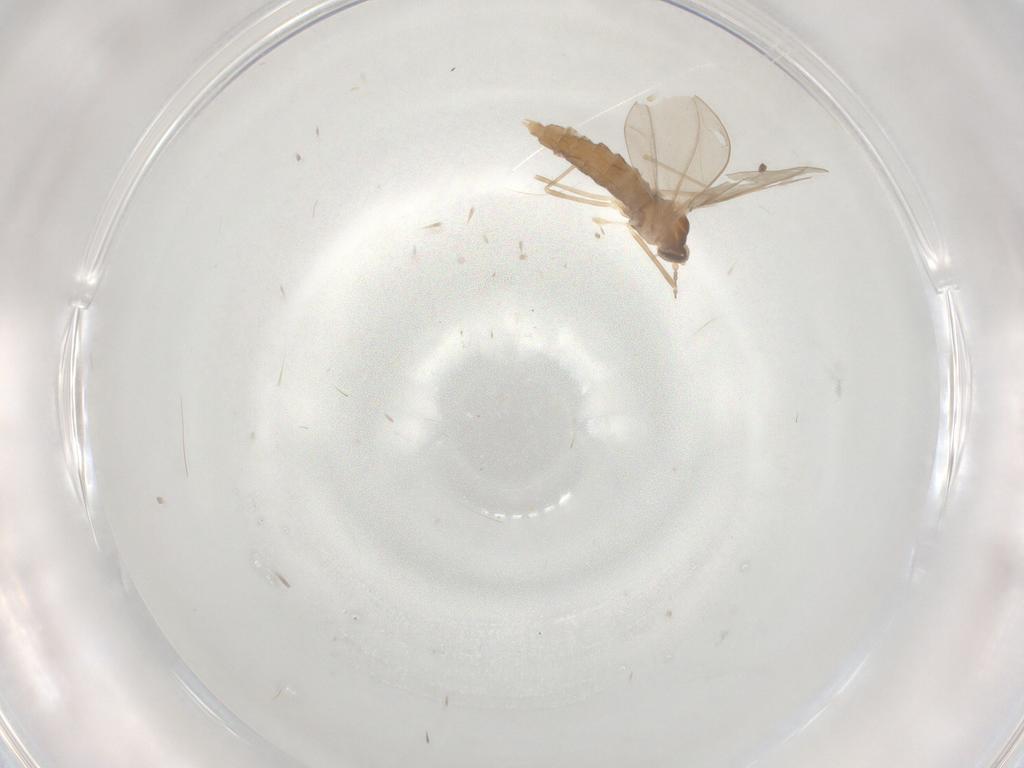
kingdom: Animalia
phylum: Arthropoda
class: Insecta
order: Diptera
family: Cecidomyiidae
